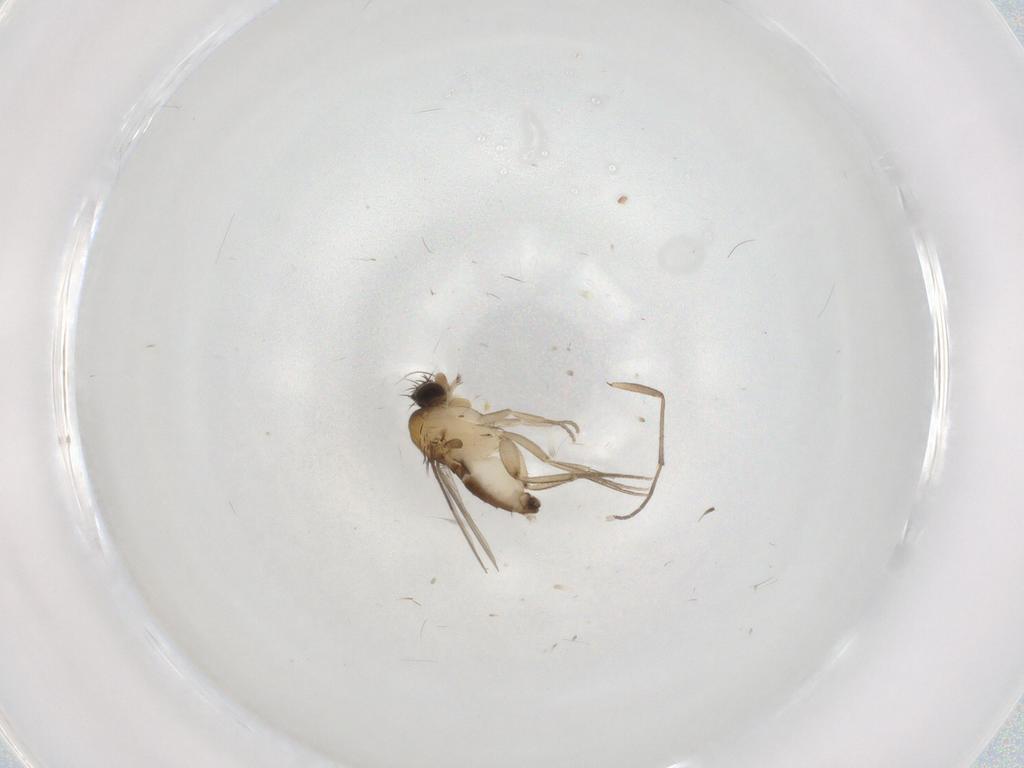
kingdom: Animalia
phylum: Arthropoda
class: Insecta
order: Diptera
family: Phoridae
